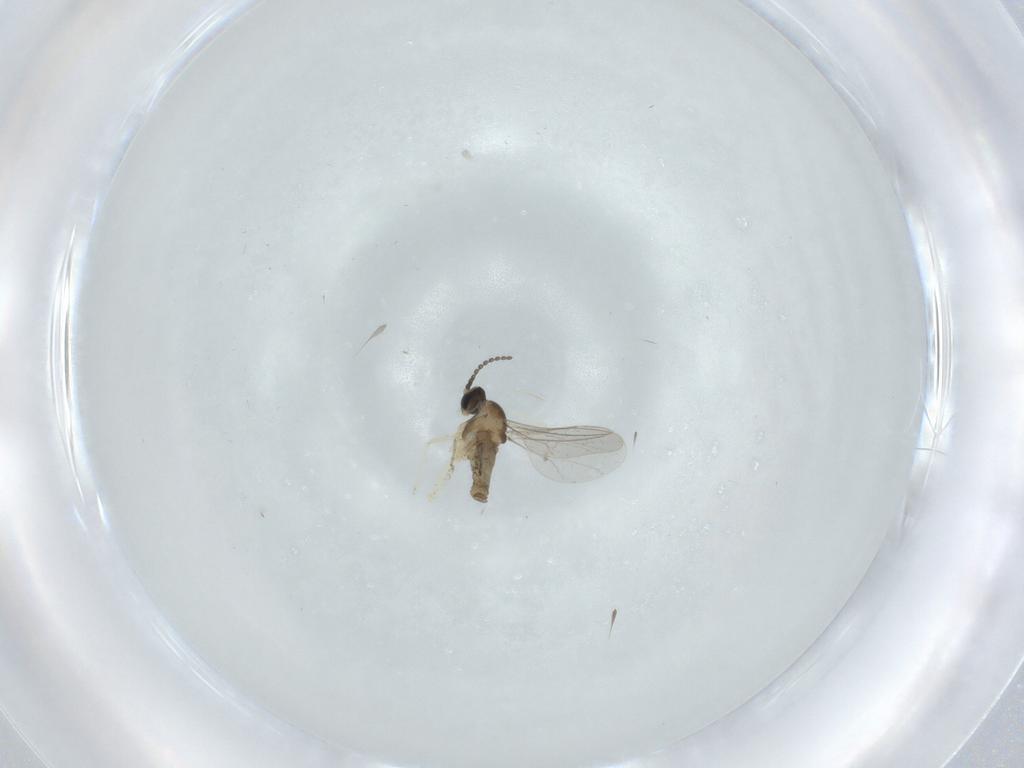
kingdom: Animalia
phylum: Arthropoda
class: Insecta
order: Diptera
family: Cecidomyiidae
